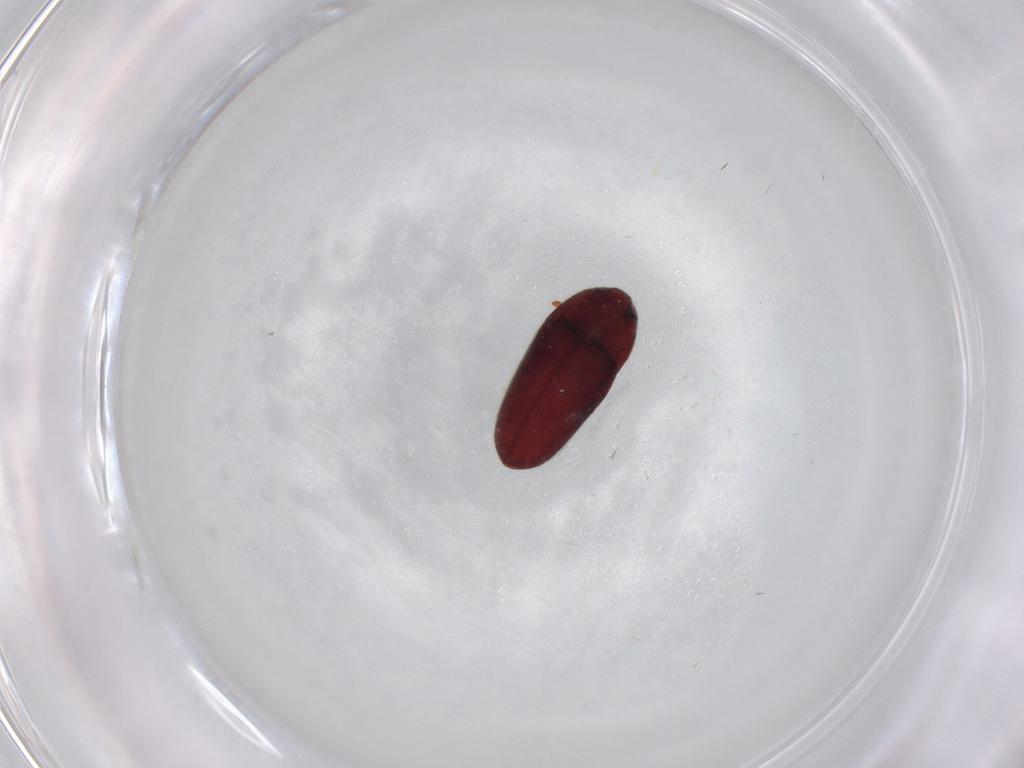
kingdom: Animalia
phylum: Arthropoda
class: Insecta
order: Coleoptera
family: Throscidae
